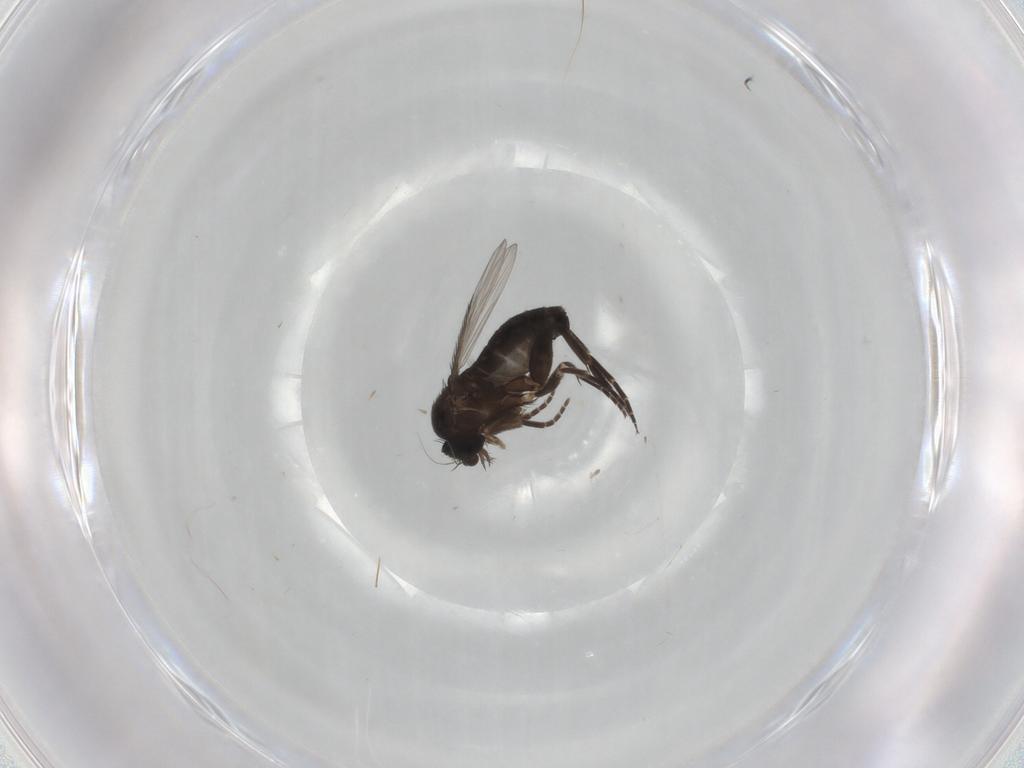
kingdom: Animalia
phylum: Arthropoda
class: Insecta
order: Diptera
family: Phoridae
